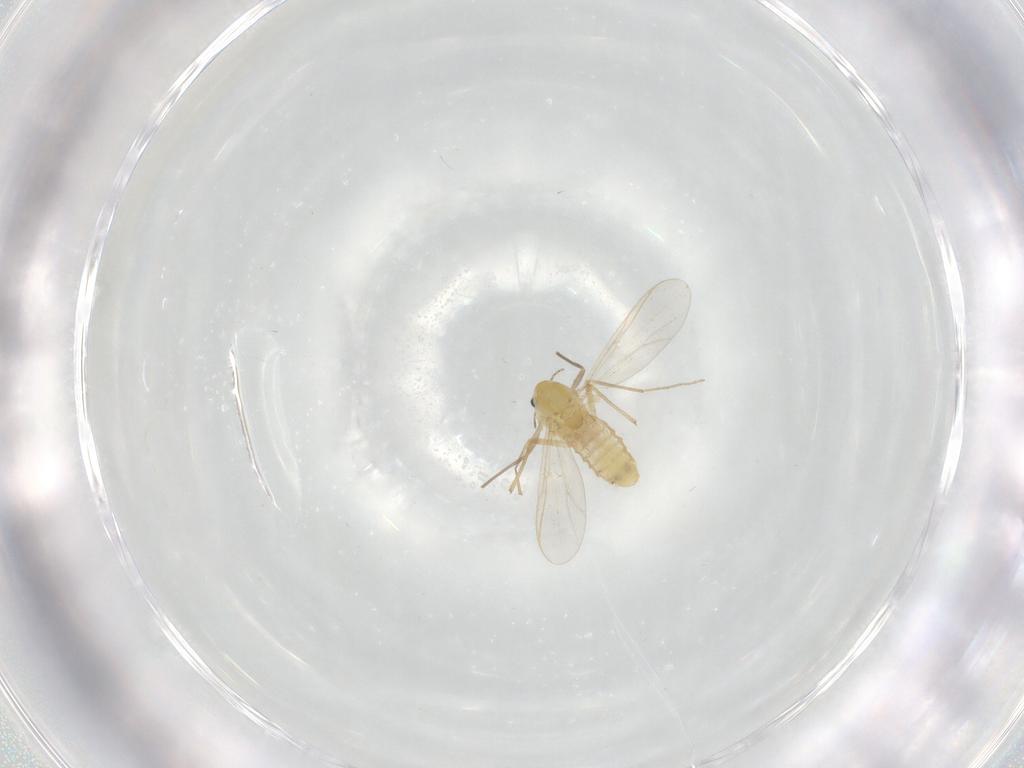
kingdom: Animalia
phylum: Arthropoda
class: Insecta
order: Diptera
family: Chironomidae
